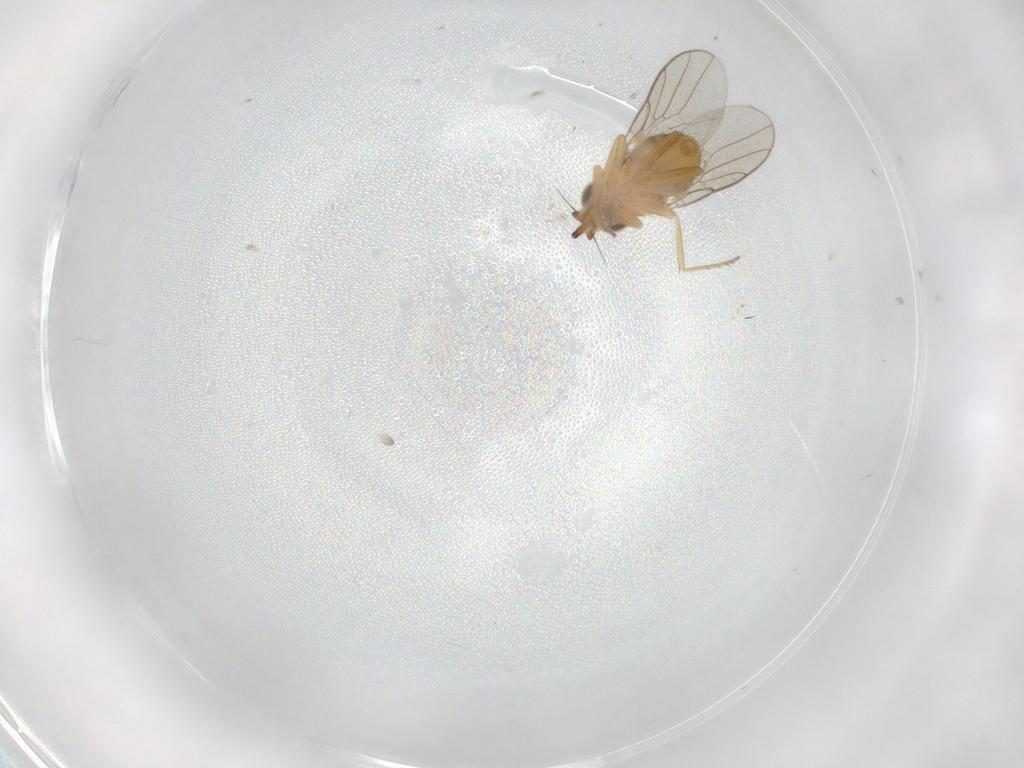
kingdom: Animalia
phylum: Arthropoda
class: Insecta
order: Diptera
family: Chloropidae
